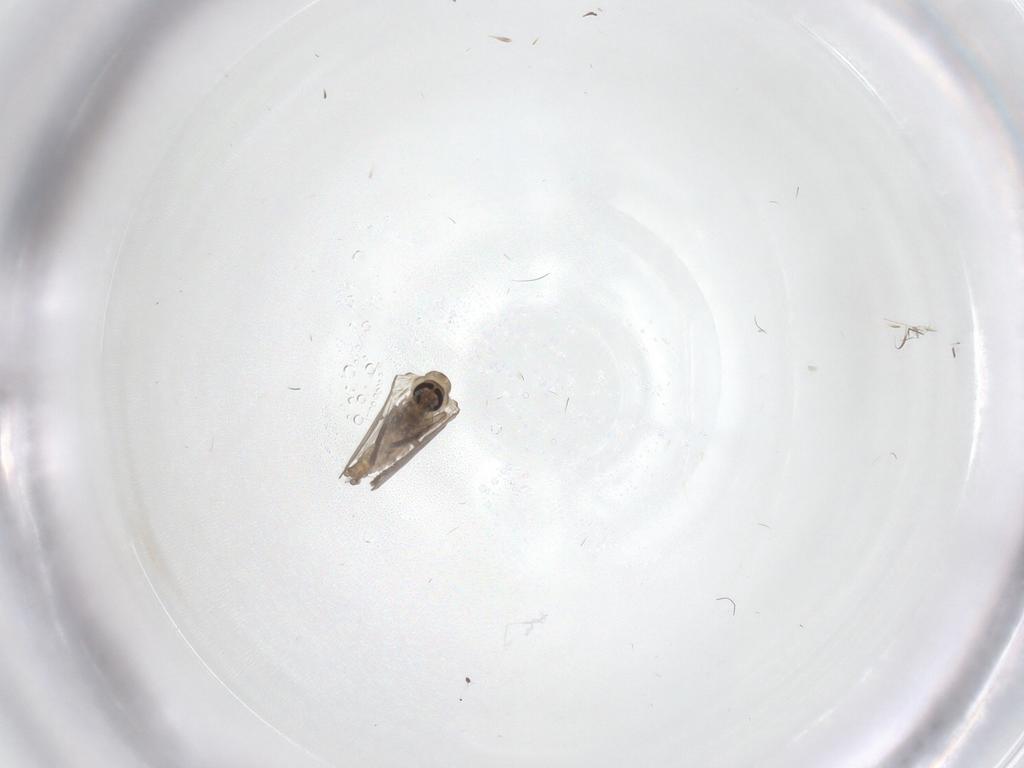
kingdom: Animalia
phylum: Arthropoda
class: Insecta
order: Diptera
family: Psychodidae
